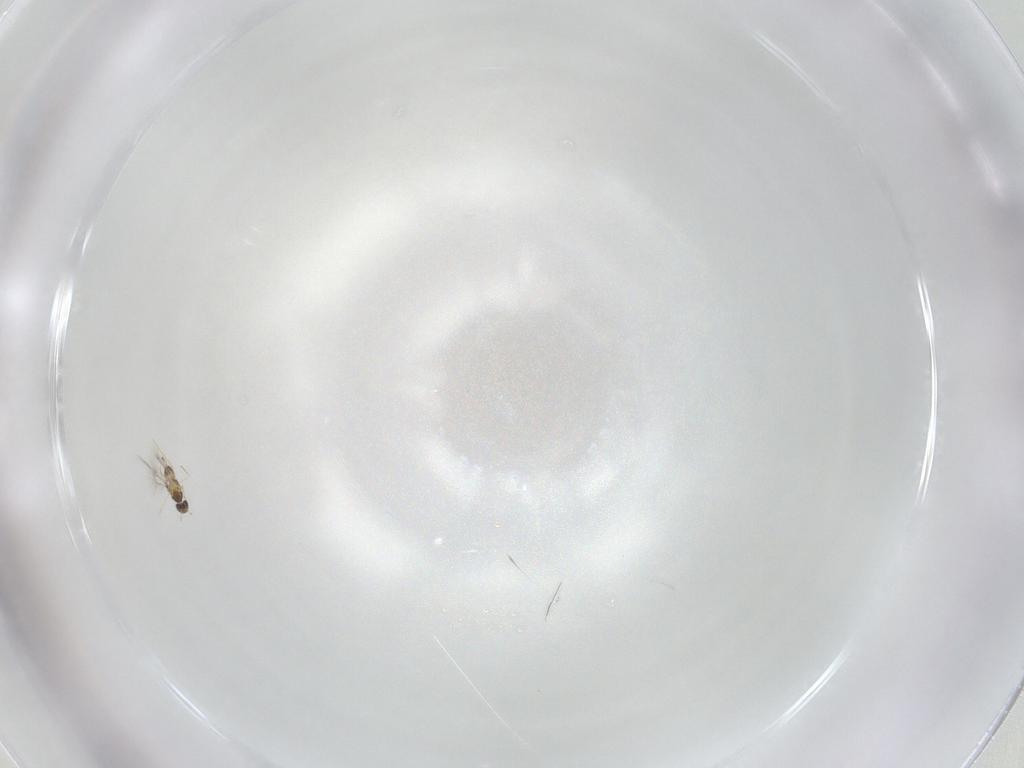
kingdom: Animalia
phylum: Arthropoda
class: Insecta
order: Hymenoptera
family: Mymaridae
